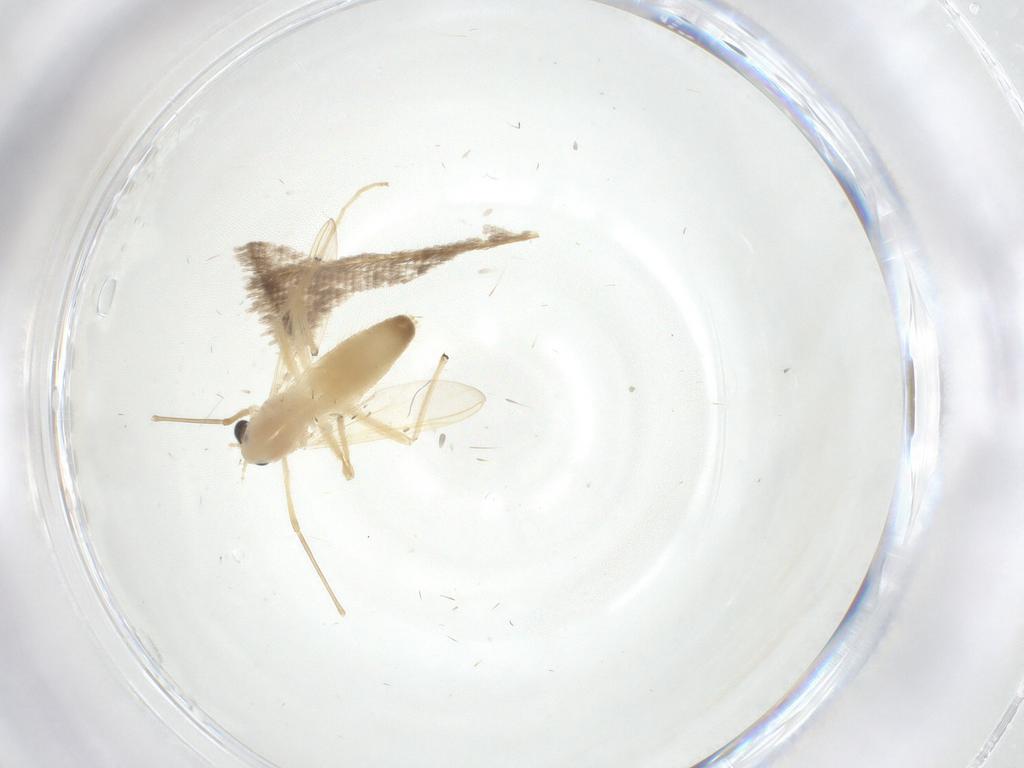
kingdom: Animalia
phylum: Arthropoda
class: Insecta
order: Diptera
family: Chironomidae
